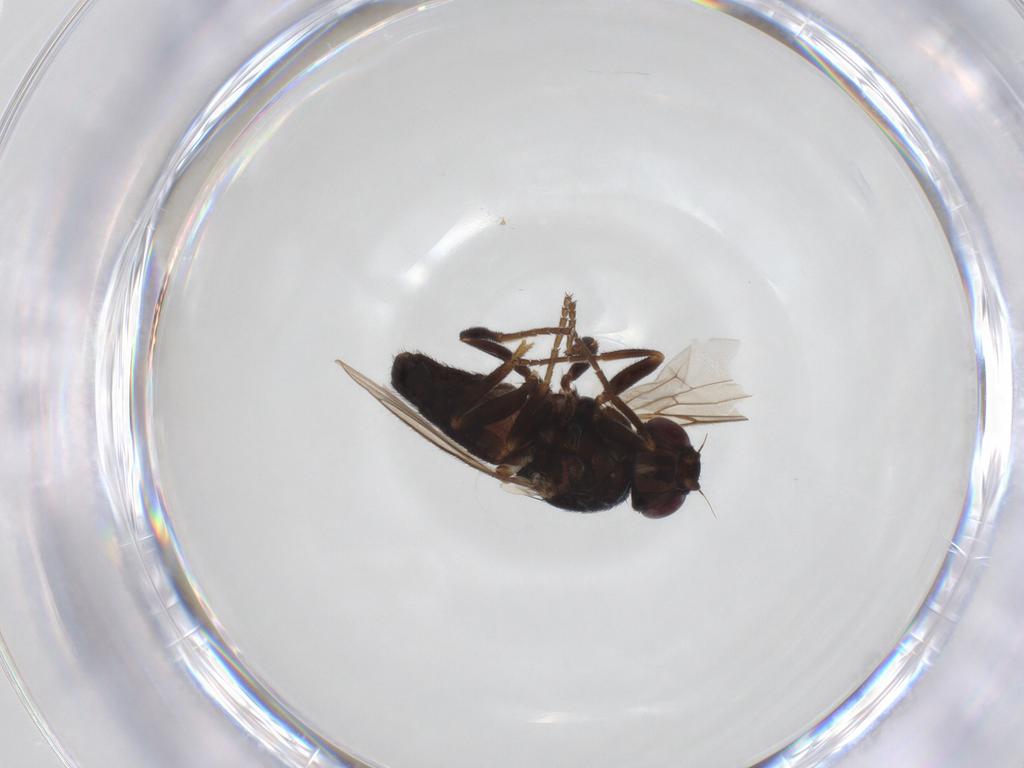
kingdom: Animalia
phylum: Arthropoda
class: Insecta
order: Diptera
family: Chloropidae
